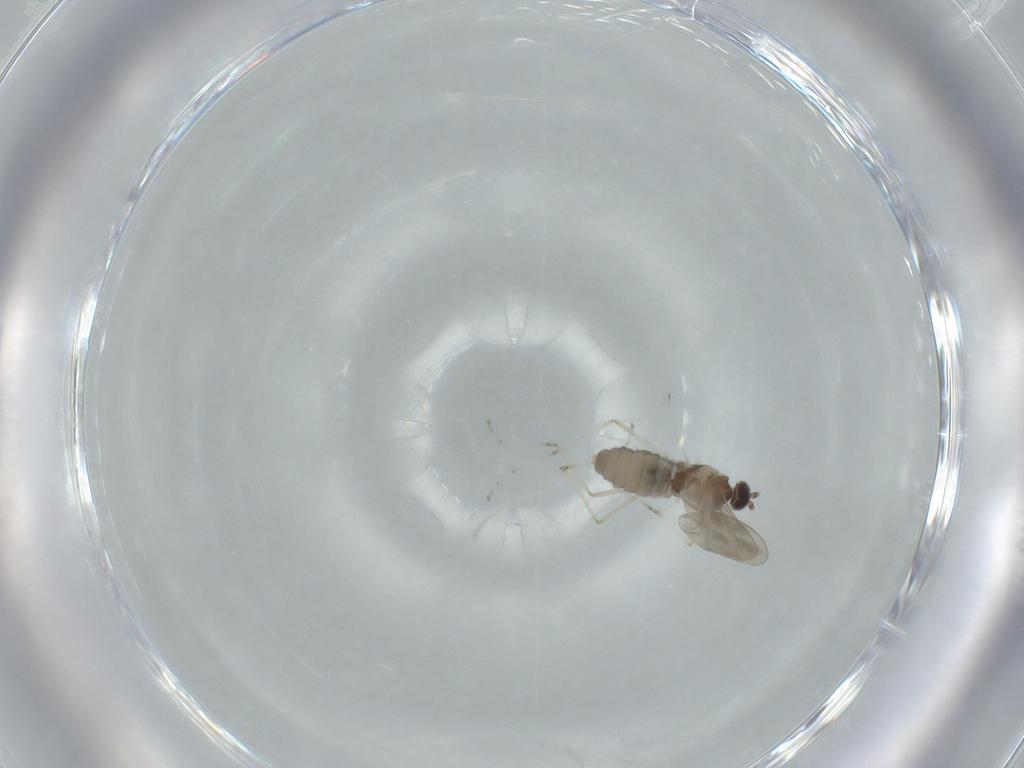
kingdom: Animalia
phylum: Arthropoda
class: Insecta
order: Diptera
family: Cecidomyiidae
